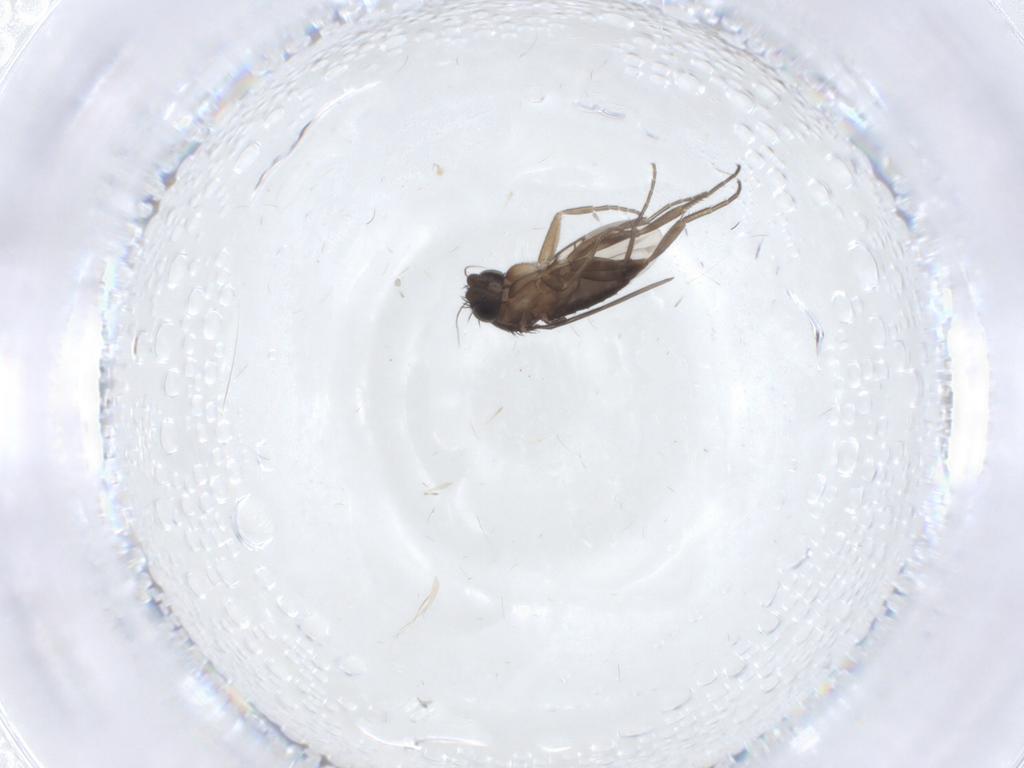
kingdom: Animalia
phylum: Arthropoda
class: Insecta
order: Diptera
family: Phoridae
